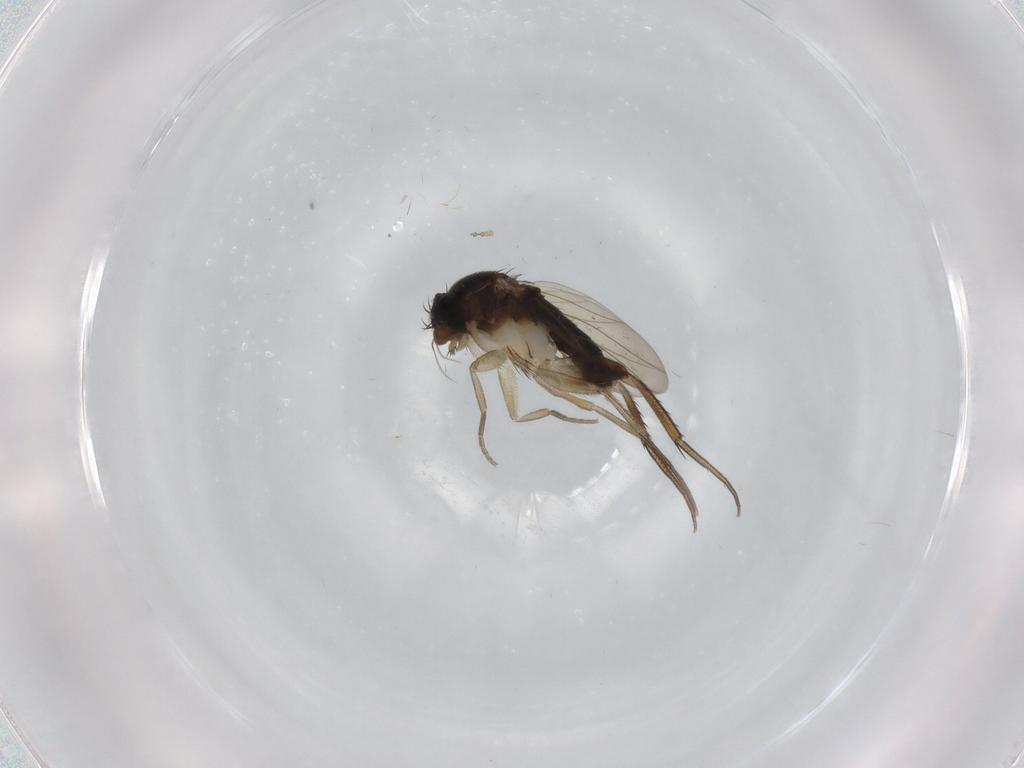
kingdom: Animalia
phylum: Arthropoda
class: Insecta
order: Diptera
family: Phoridae
